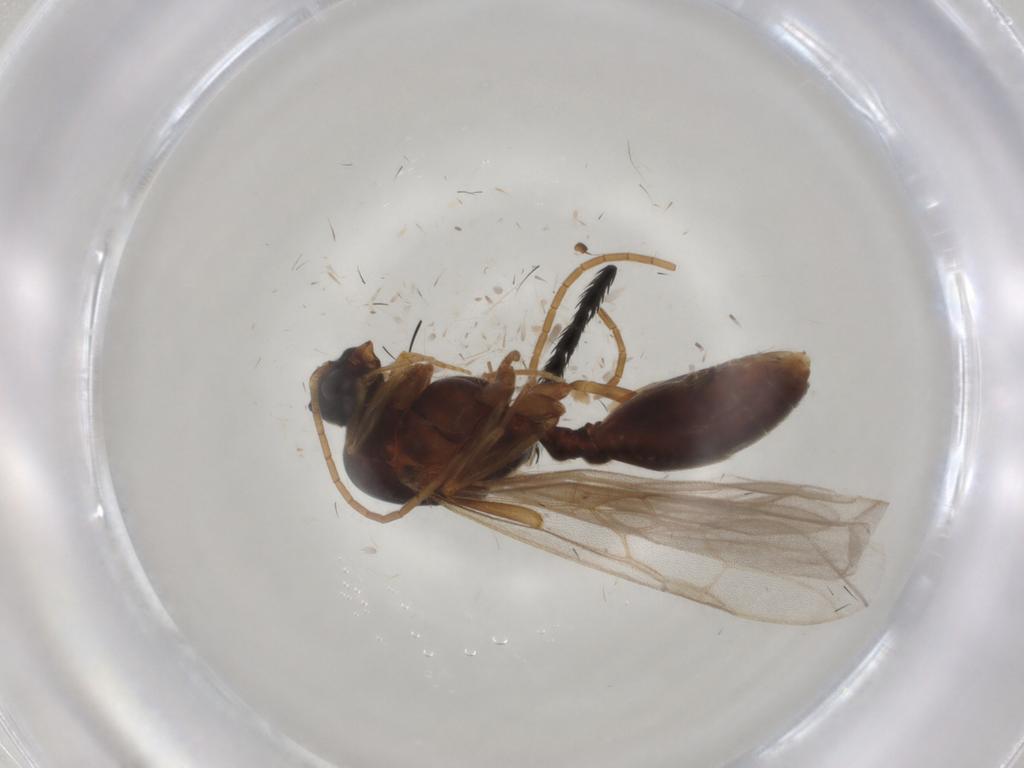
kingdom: Animalia
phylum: Arthropoda
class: Insecta
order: Hymenoptera
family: Formicidae
